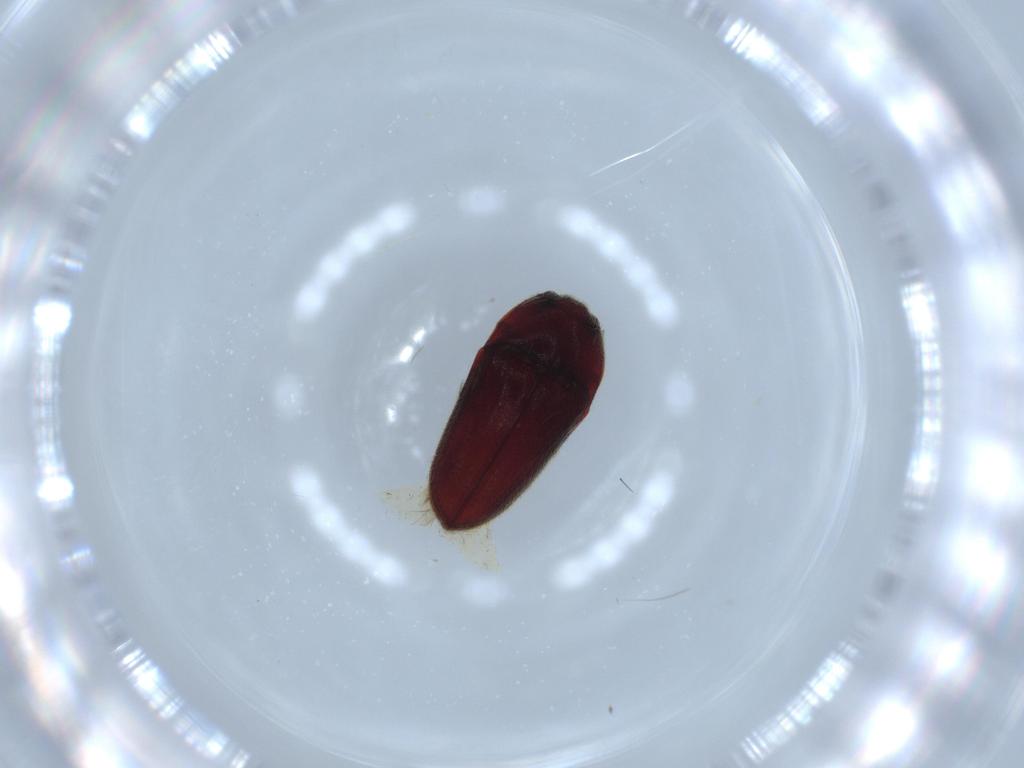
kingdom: Animalia
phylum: Arthropoda
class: Insecta
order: Coleoptera
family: Throscidae
